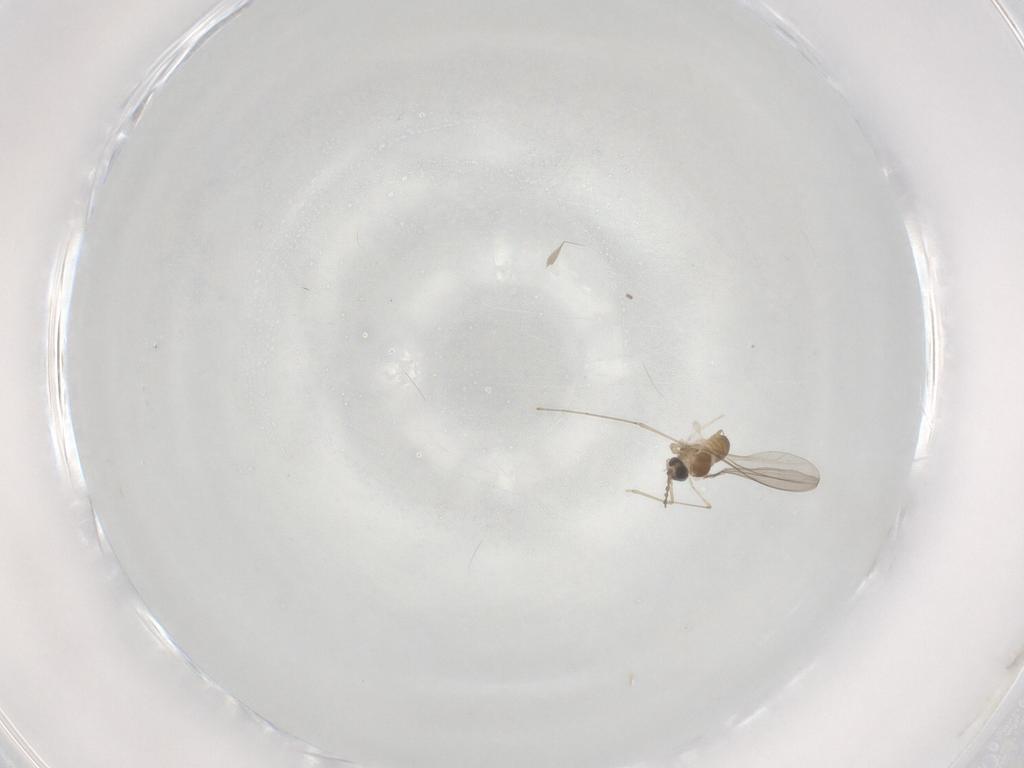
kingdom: Animalia
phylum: Arthropoda
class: Insecta
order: Diptera
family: Cecidomyiidae
